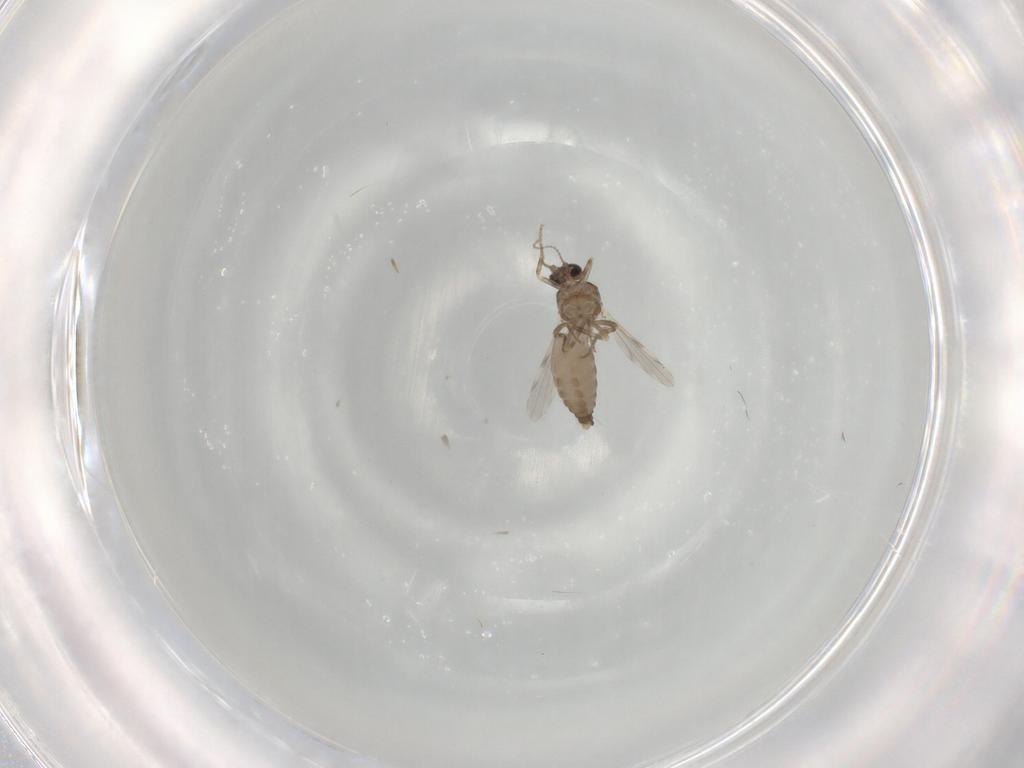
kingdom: Animalia
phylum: Arthropoda
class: Insecta
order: Diptera
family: Ceratopogonidae
